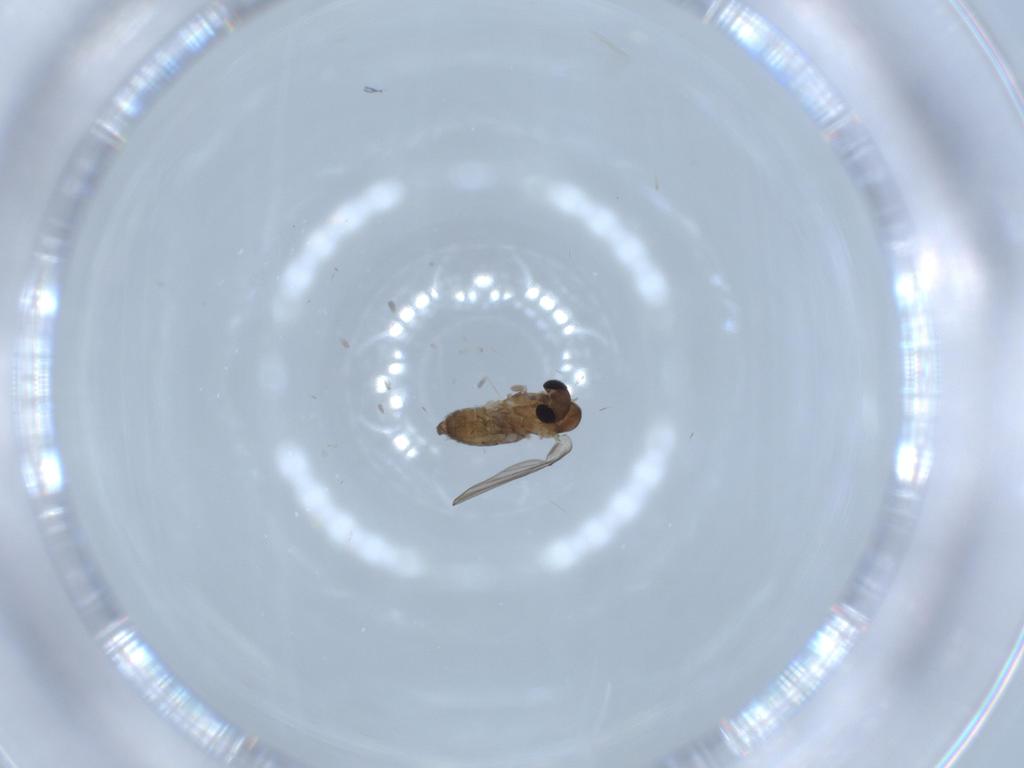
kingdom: Animalia
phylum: Arthropoda
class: Insecta
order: Diptera
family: Psychodidae
